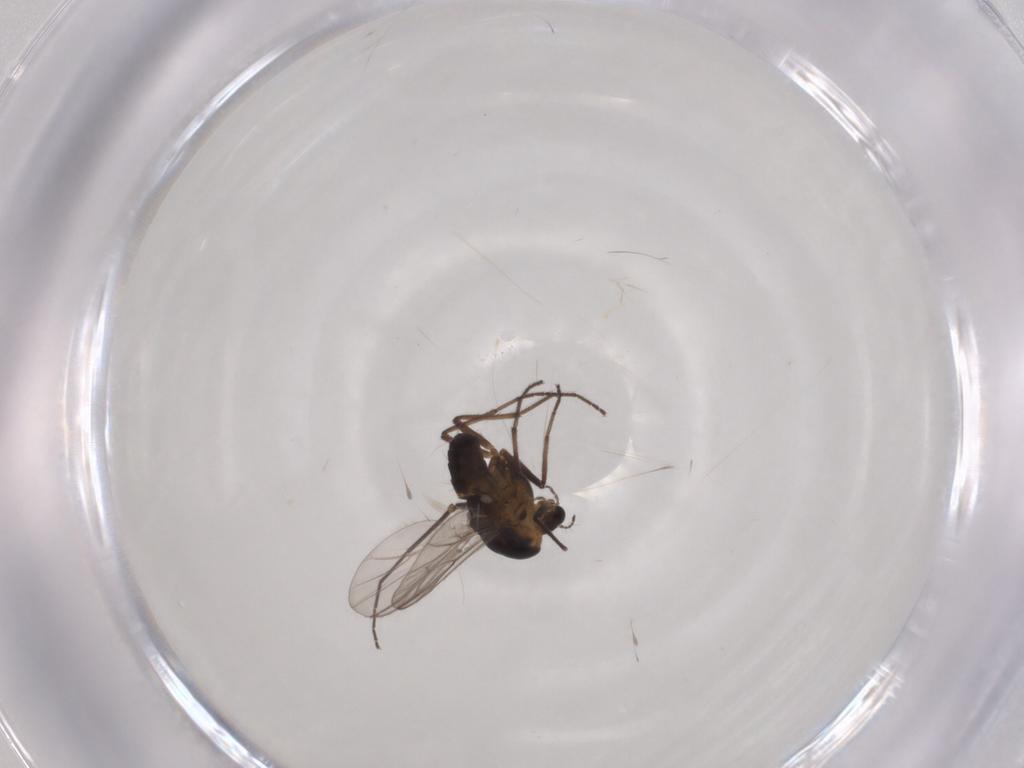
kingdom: Animalia
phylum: Arthropoda
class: Insecta
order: Diptera
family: Chironomidae
